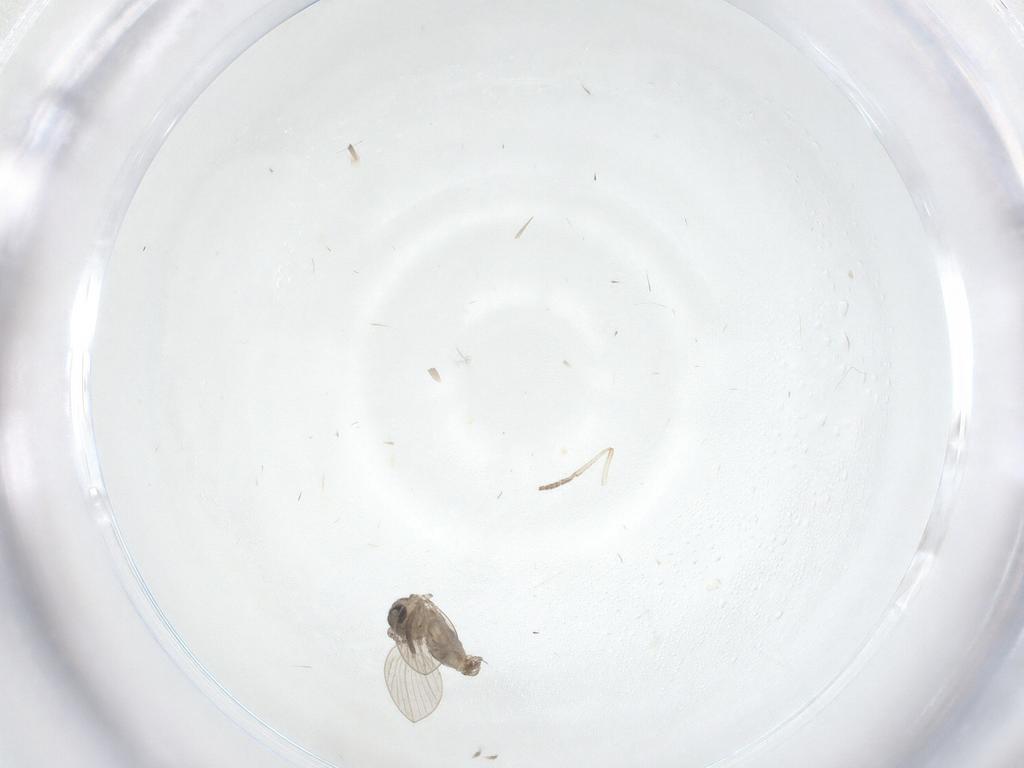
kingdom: Animalia
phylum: Arthropoda
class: Insecta
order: Diptera
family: Psychodidae
